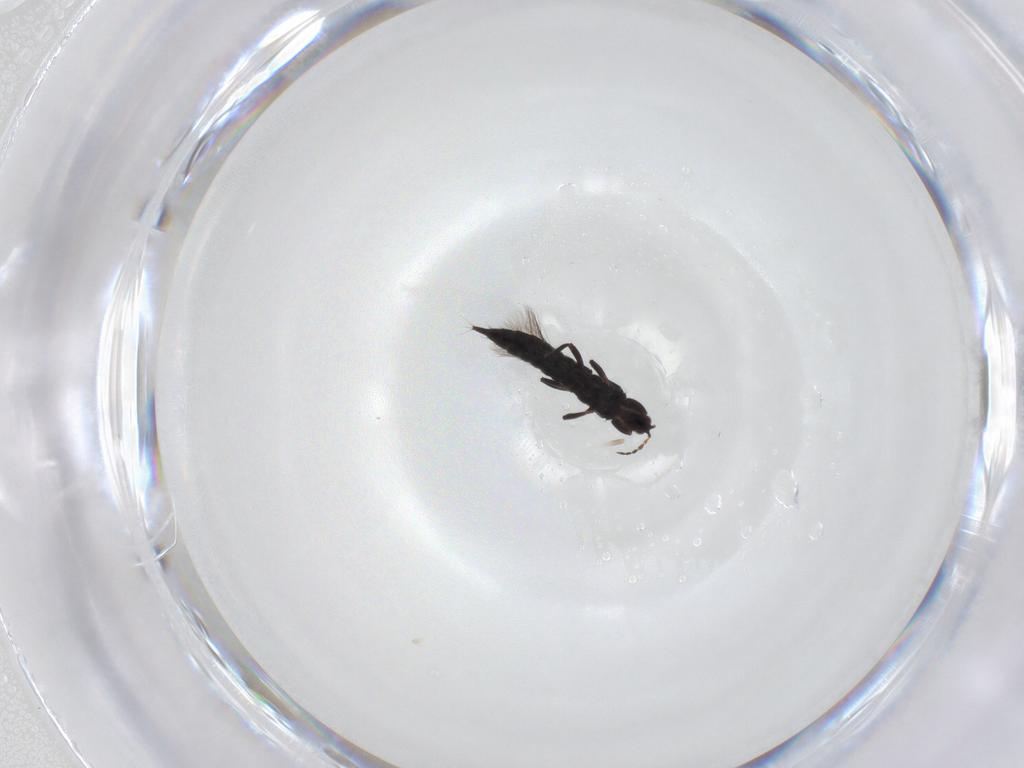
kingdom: Animalia
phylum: Arthropoda
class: Insecta
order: Thysanoptera
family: Phlaeothripidae
